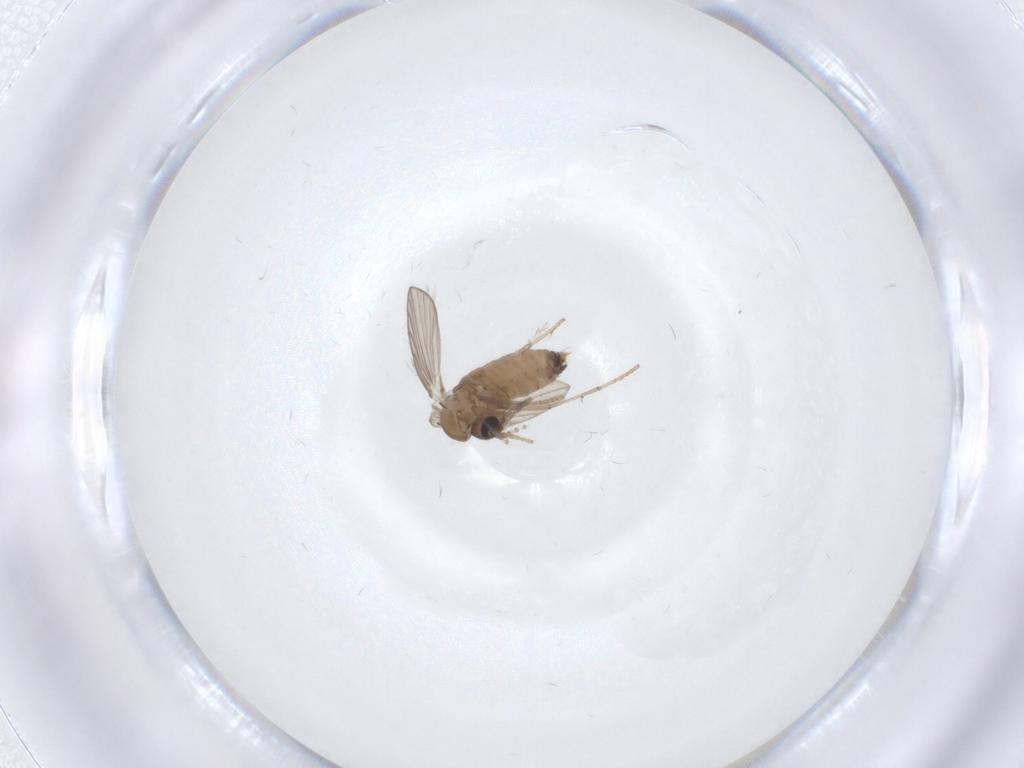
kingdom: Animalia
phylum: Arthropoda
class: Insecta
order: Diptera
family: Psychodidae
